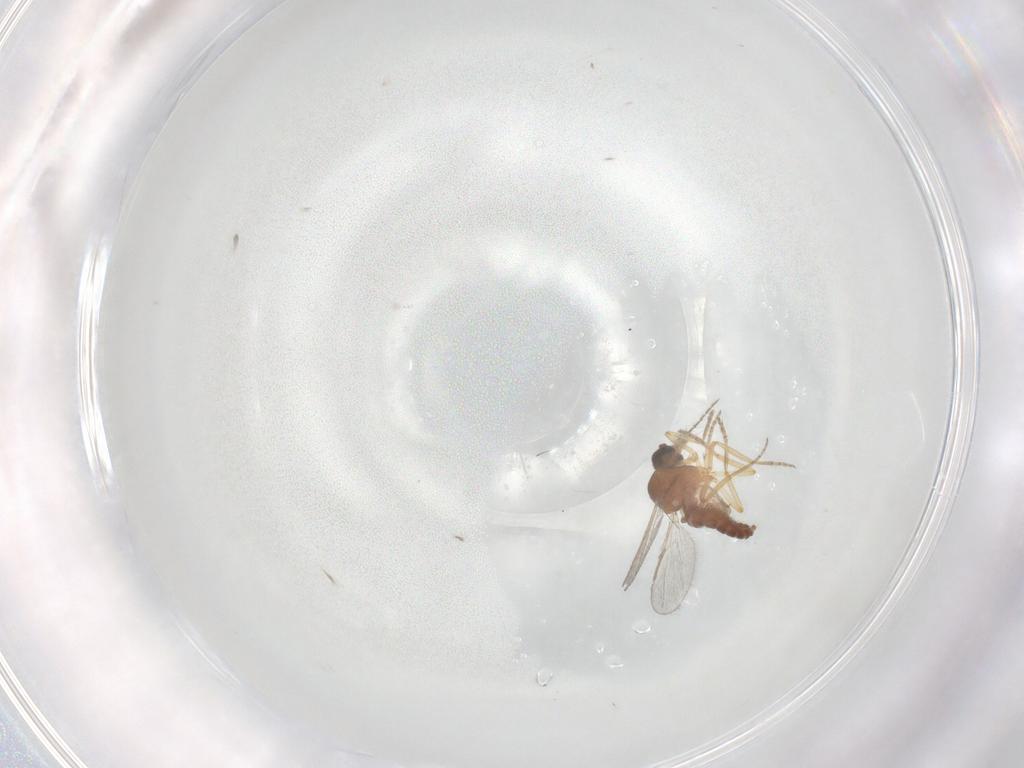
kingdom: Animalia
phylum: Arthropoda
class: Insecta
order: Diptera
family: Phoridae
